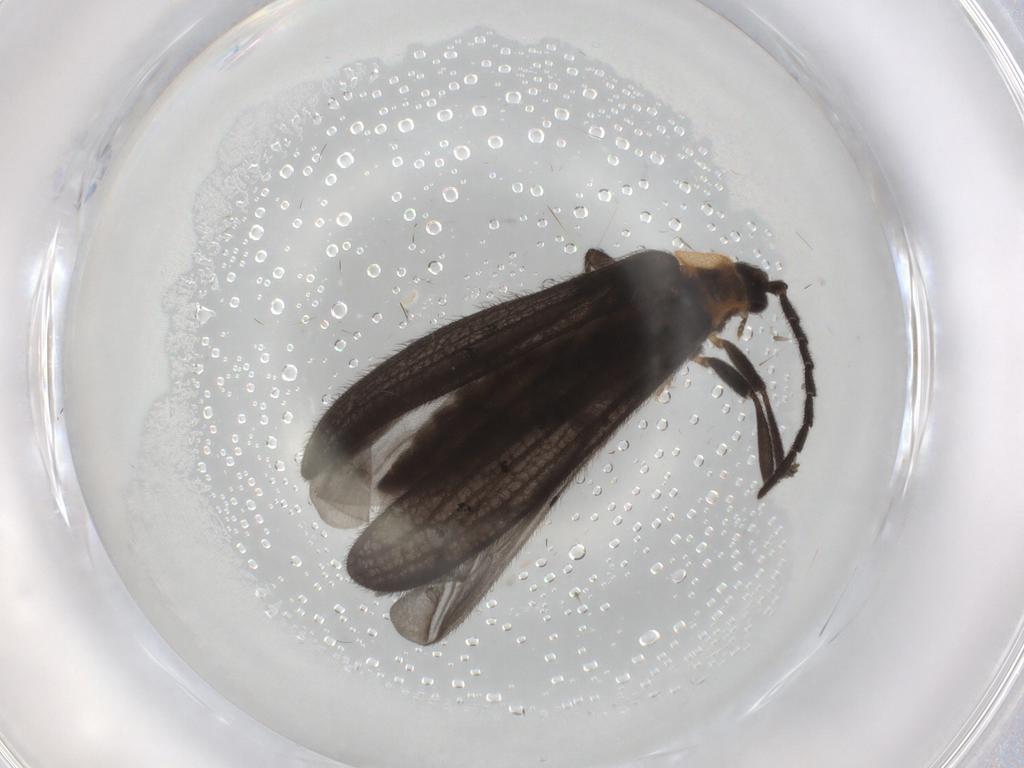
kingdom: Animalia
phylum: Arthropoda
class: Insecta
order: Coleoptera
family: Lycidae
